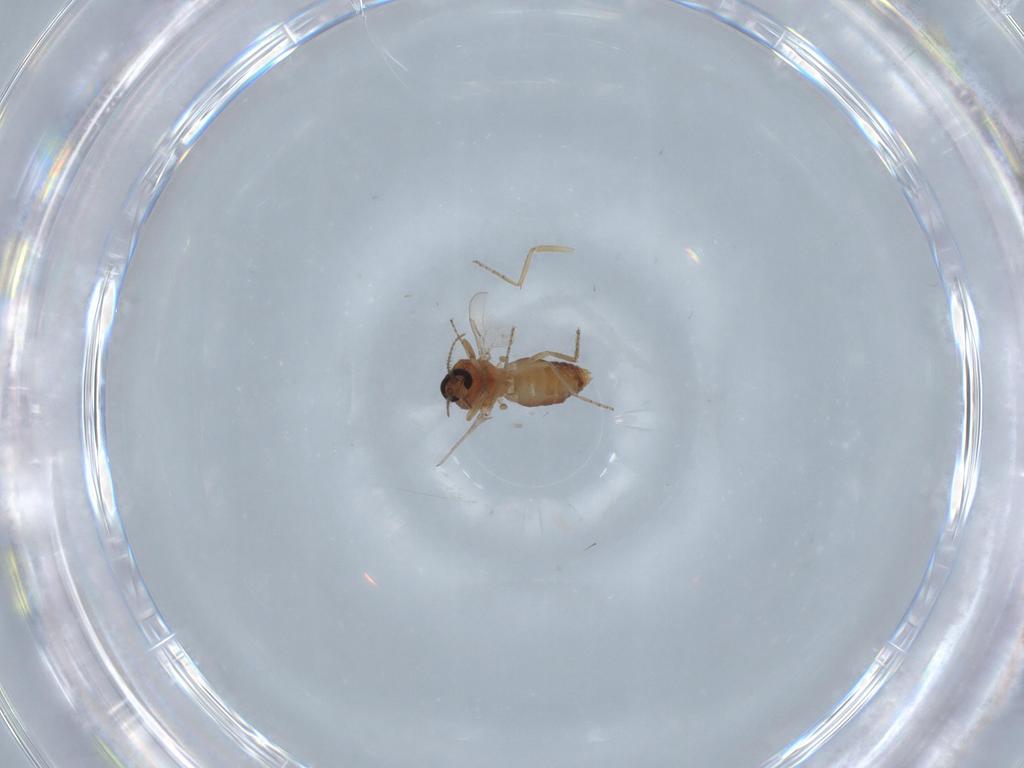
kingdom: Animalia
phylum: Arthropoda
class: Insecta
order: Diptera
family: Ceratopogonidae
